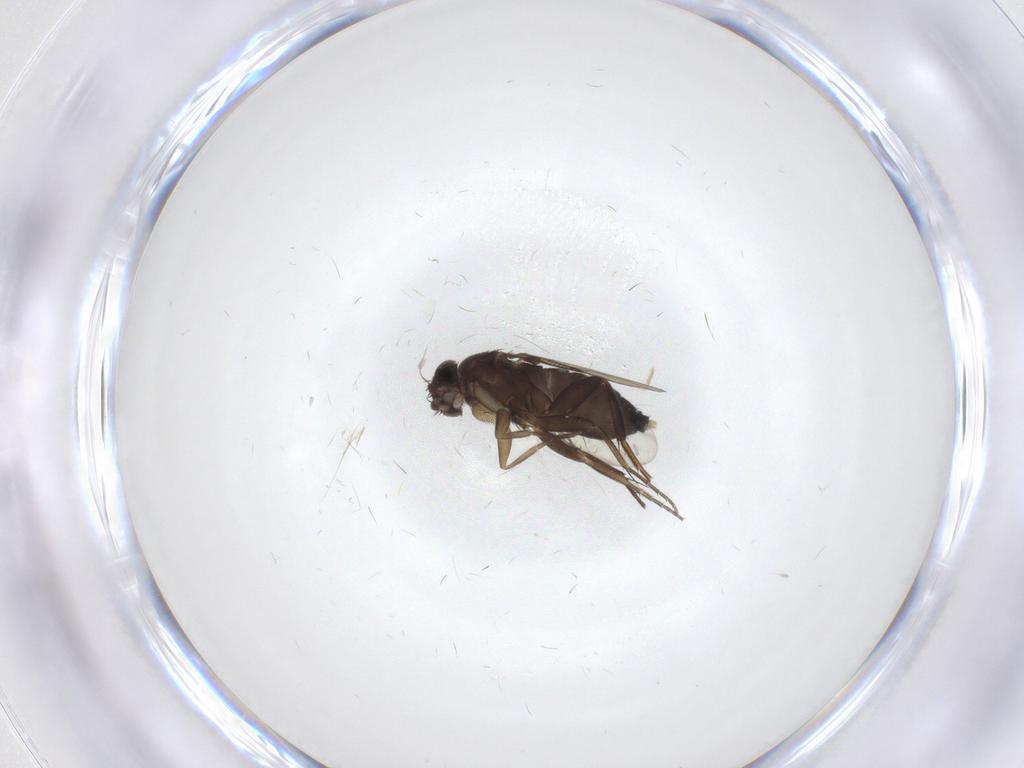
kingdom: Animalia
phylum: Arthropoda
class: Insecta
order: Diptera
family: Phoridae
